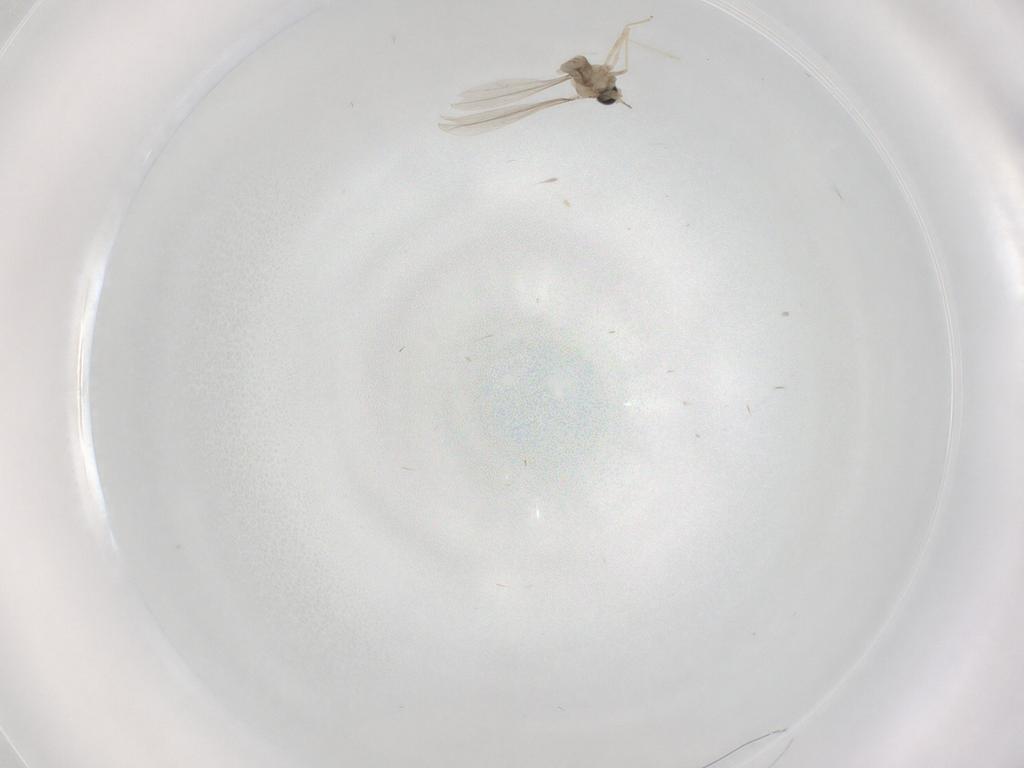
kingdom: Animalia
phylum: Arthropoda
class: Insecta
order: Diptera
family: Cecidomyiidae
